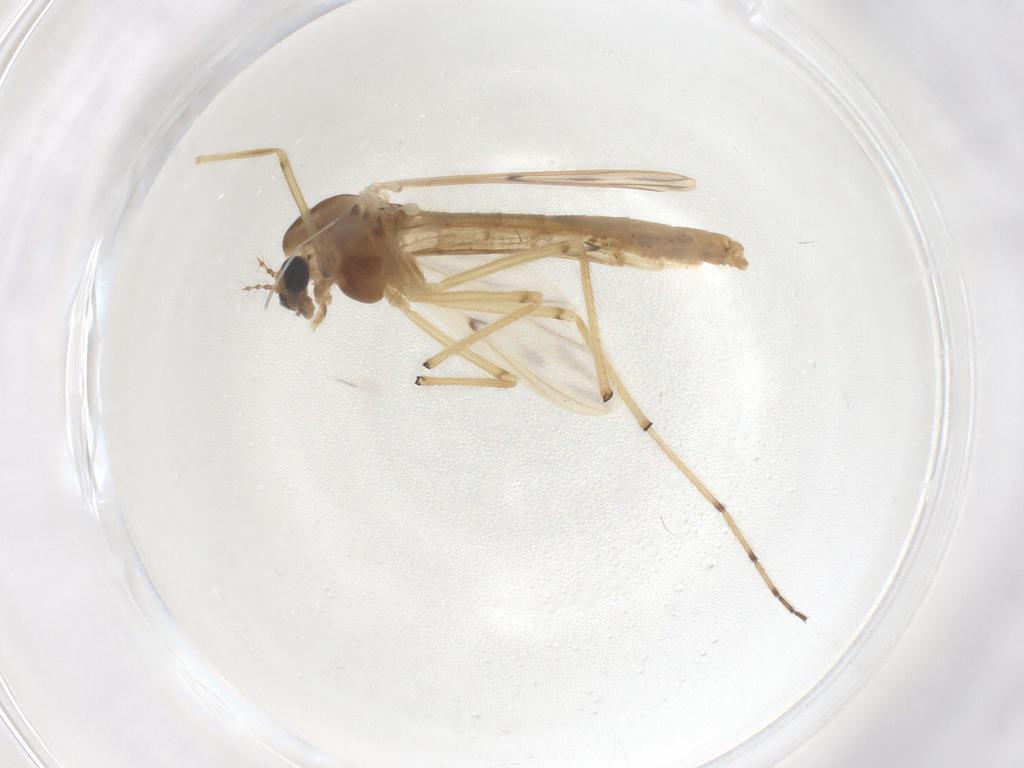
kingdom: Animalia
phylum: Arthropoda
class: Insecta
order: Diptera
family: Chironomidae
